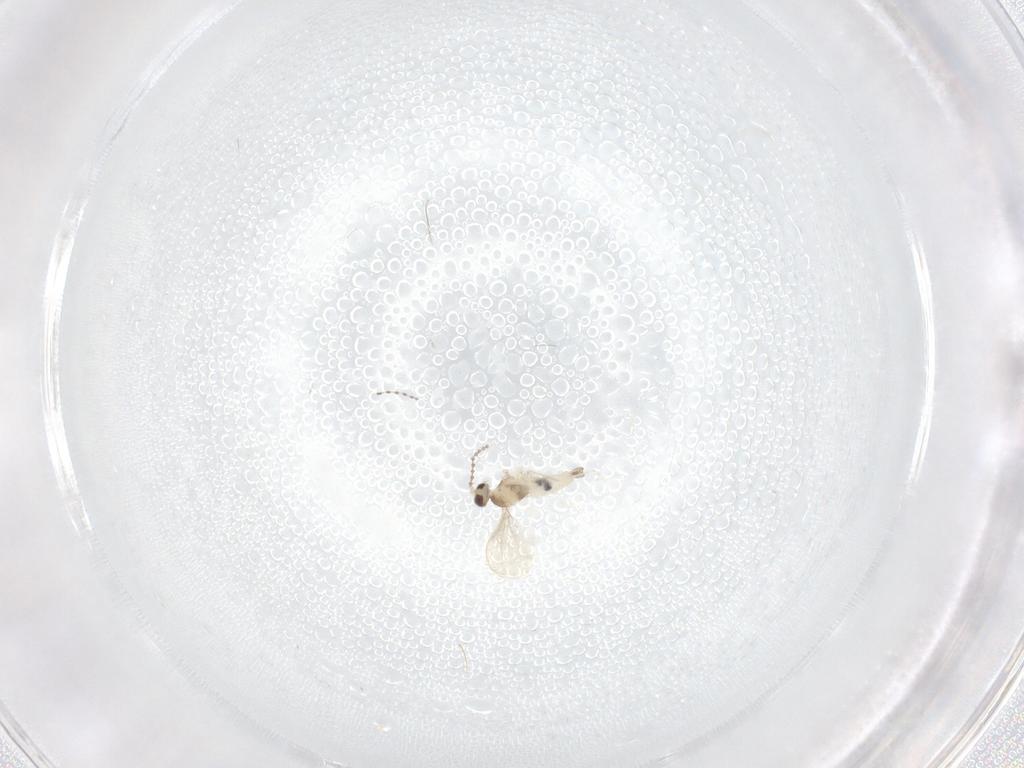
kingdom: Animalia
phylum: Arthropoda
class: Insecta
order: Diptera
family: Cecidomyiidae
